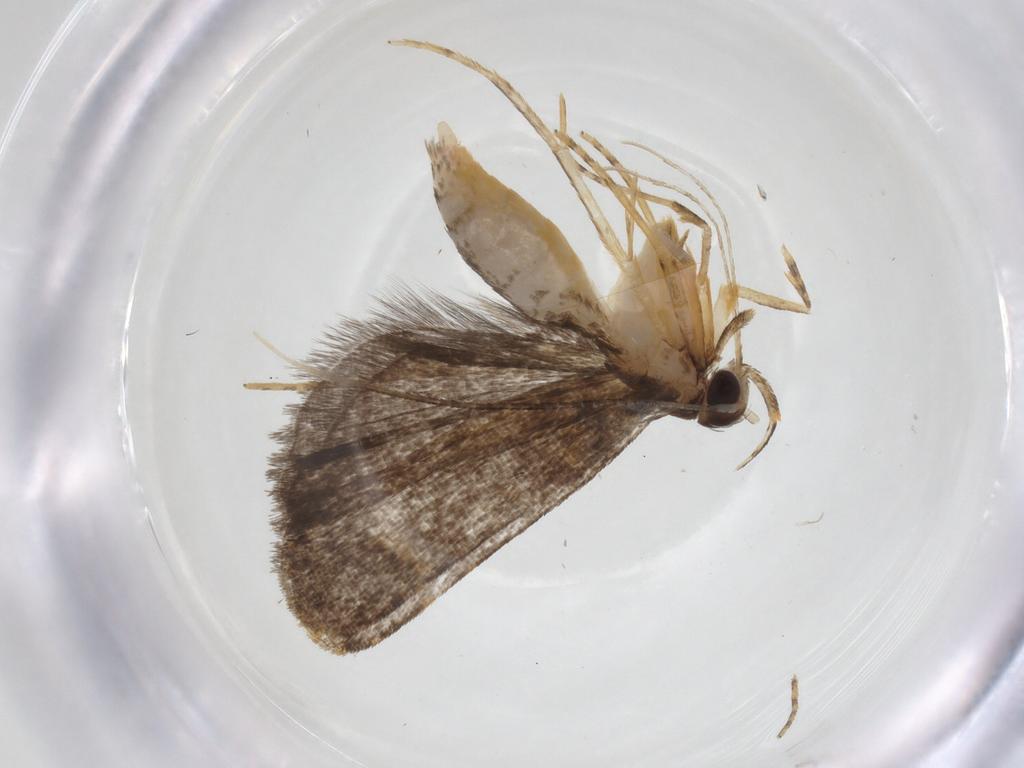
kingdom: Animalia
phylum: Arthropoda
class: Insecta
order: Lepidoptera
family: Cosmopterigidae
